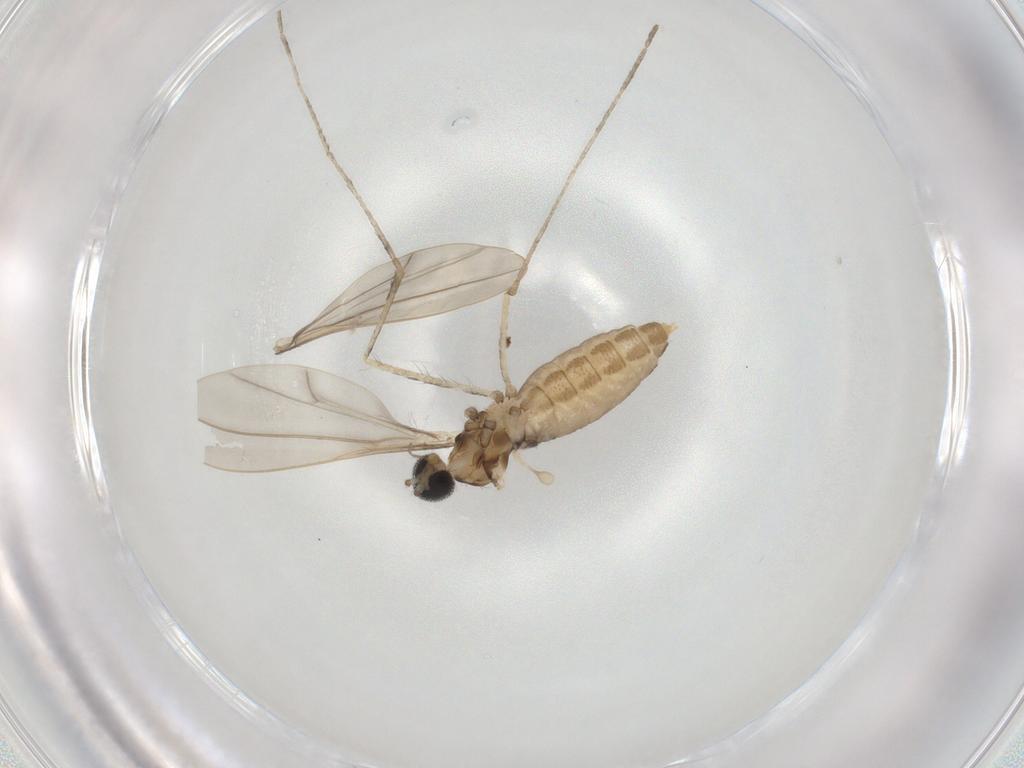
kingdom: Animalia
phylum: Arthropoda
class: Insecta
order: Diptera
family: Cecidomyiidae
